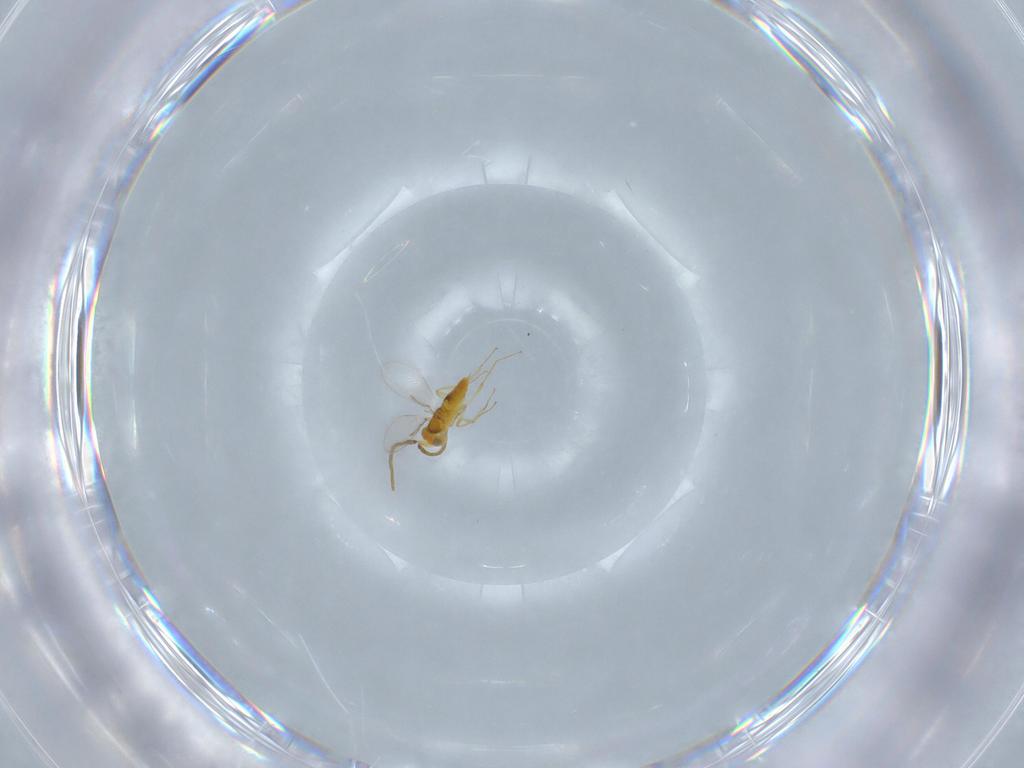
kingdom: Animalia
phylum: Arthropoda
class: Insecta
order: Hymenoptera
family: Aphelinidae
